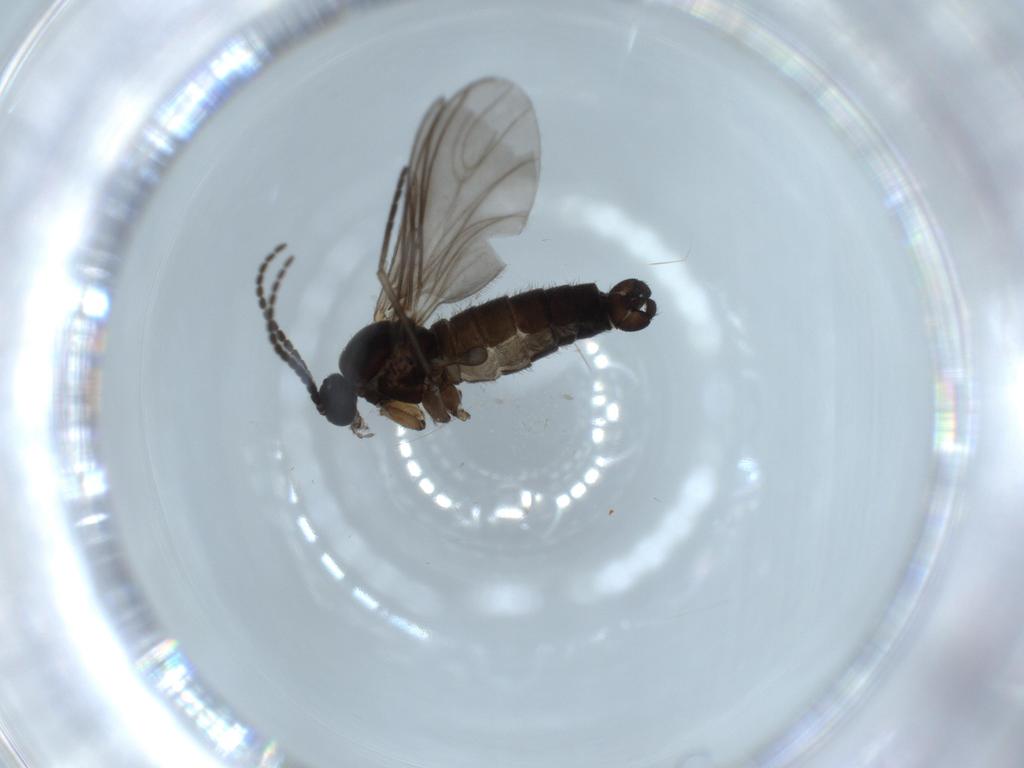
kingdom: Animalia
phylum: Arthropoda
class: Insecta
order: Diptera
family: Sciaridae
